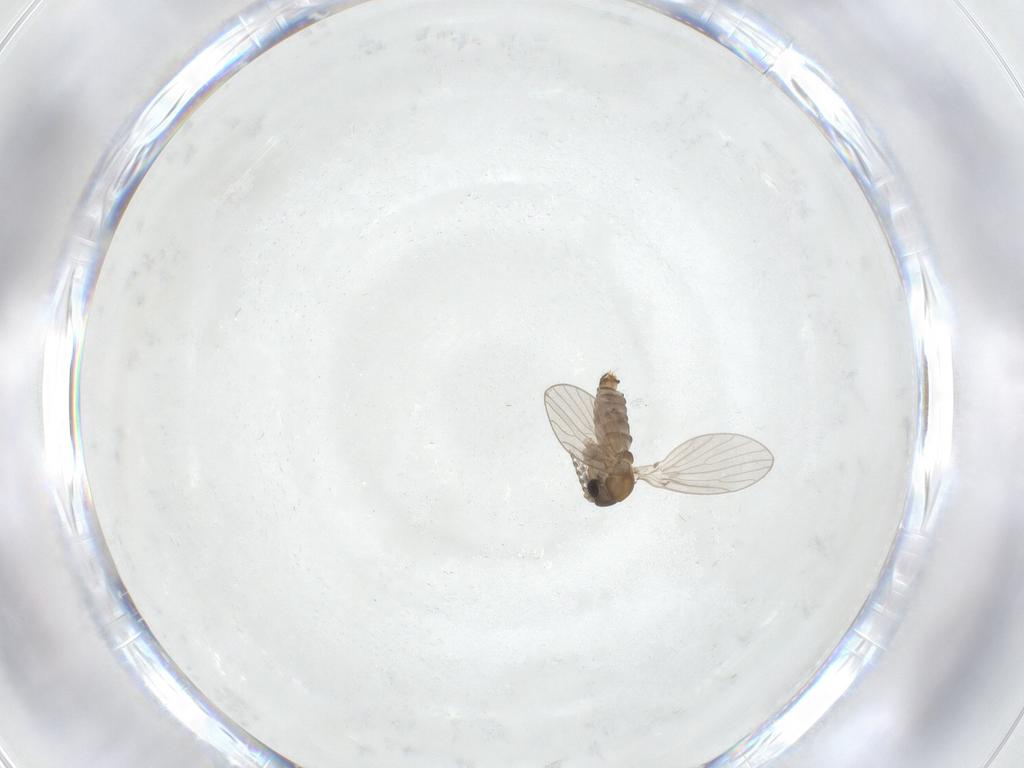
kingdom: Animalia
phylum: Arthropoda
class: Insecta
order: Diptera
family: Psychodidae
